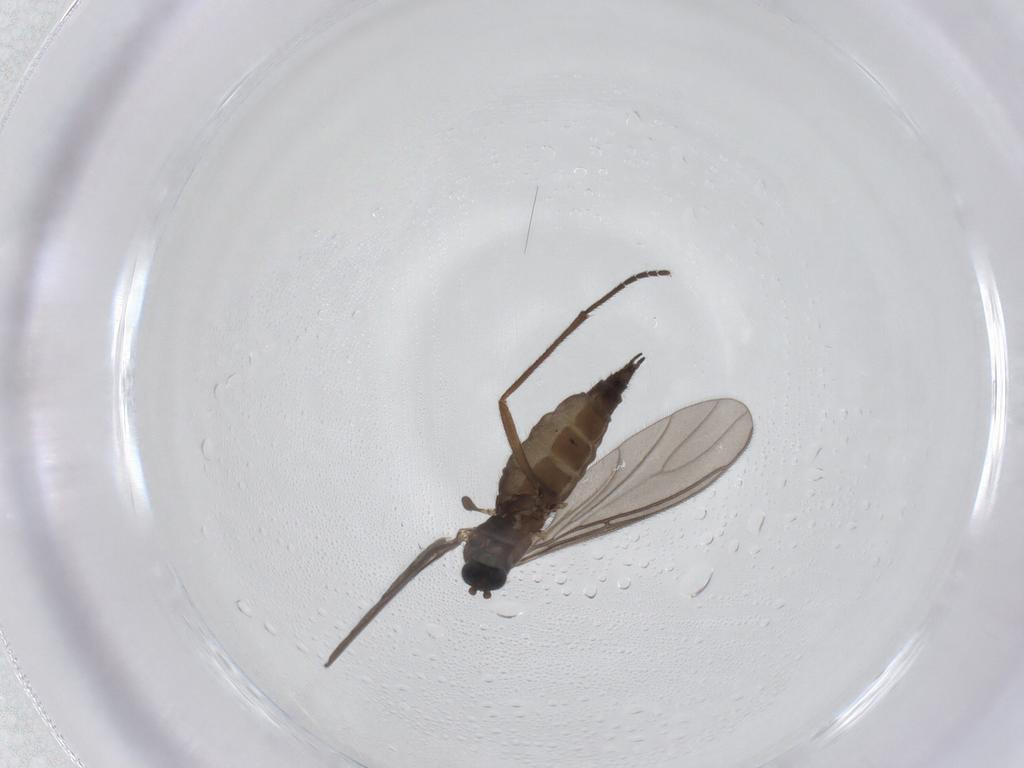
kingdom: Animalia
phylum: Arthropoda
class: Insecta
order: Diptera
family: Sciaridae
